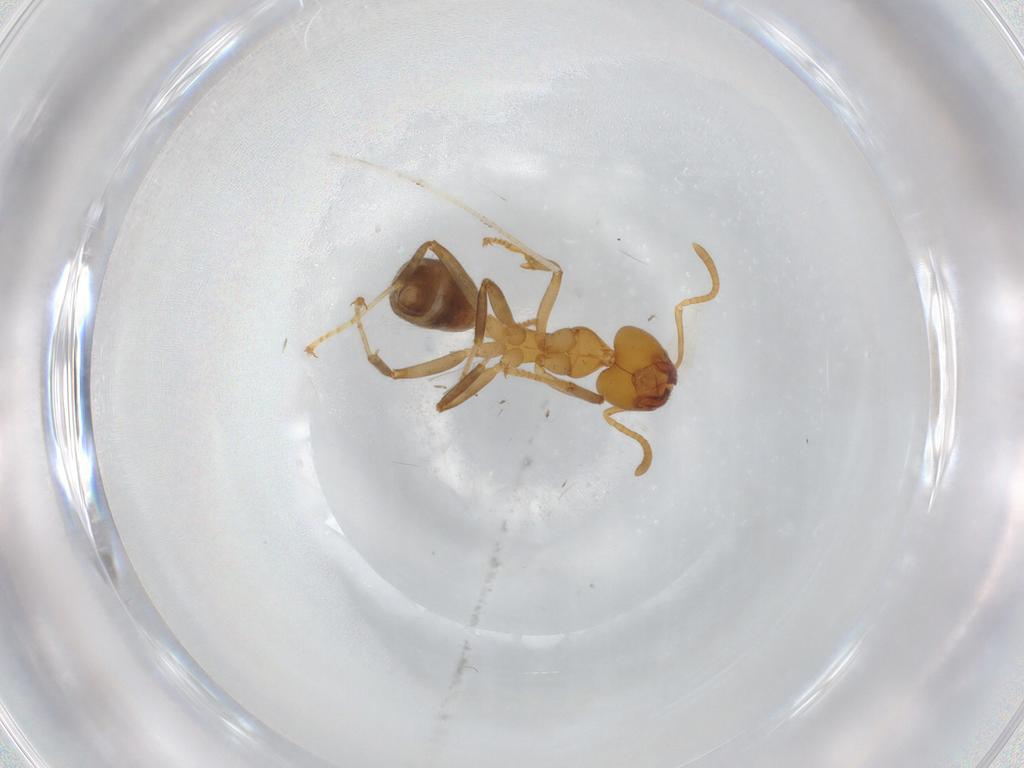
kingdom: Animalia
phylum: Arthropoda
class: Insecta
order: Hymenoptera
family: Formicidae
